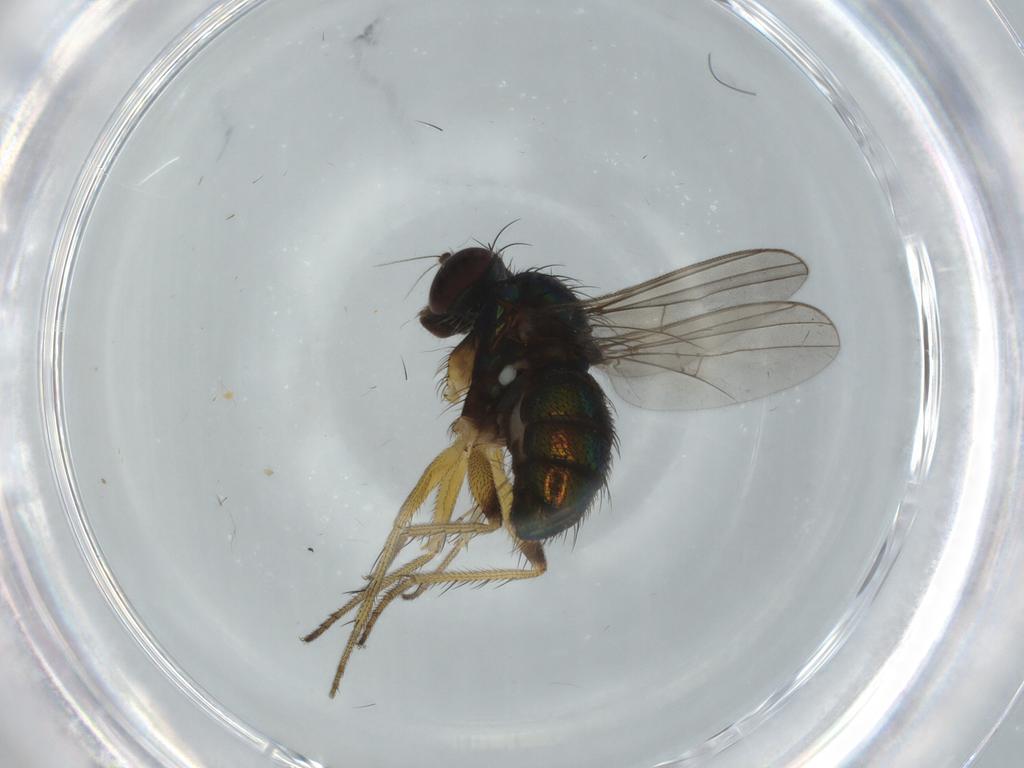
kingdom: Animalia
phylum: Arthropoda
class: Insecta
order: Diptera
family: Dolichopodidae
